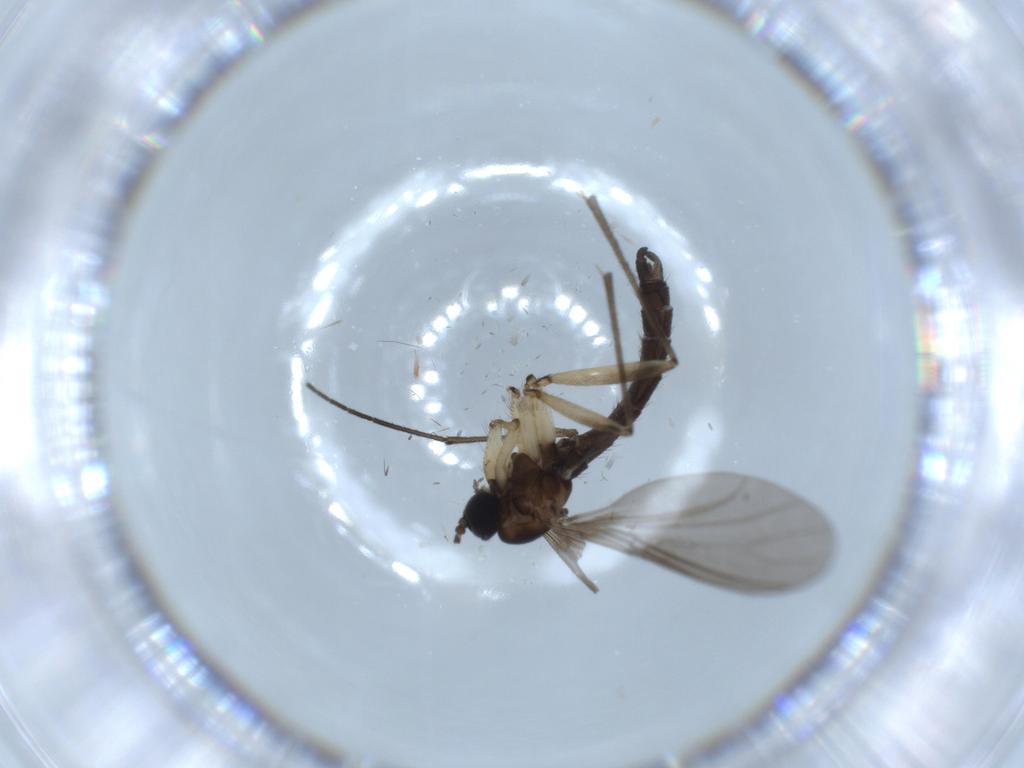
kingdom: Animalia
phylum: Arthropoda
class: Insecta
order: Diptera
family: Sciaridae
